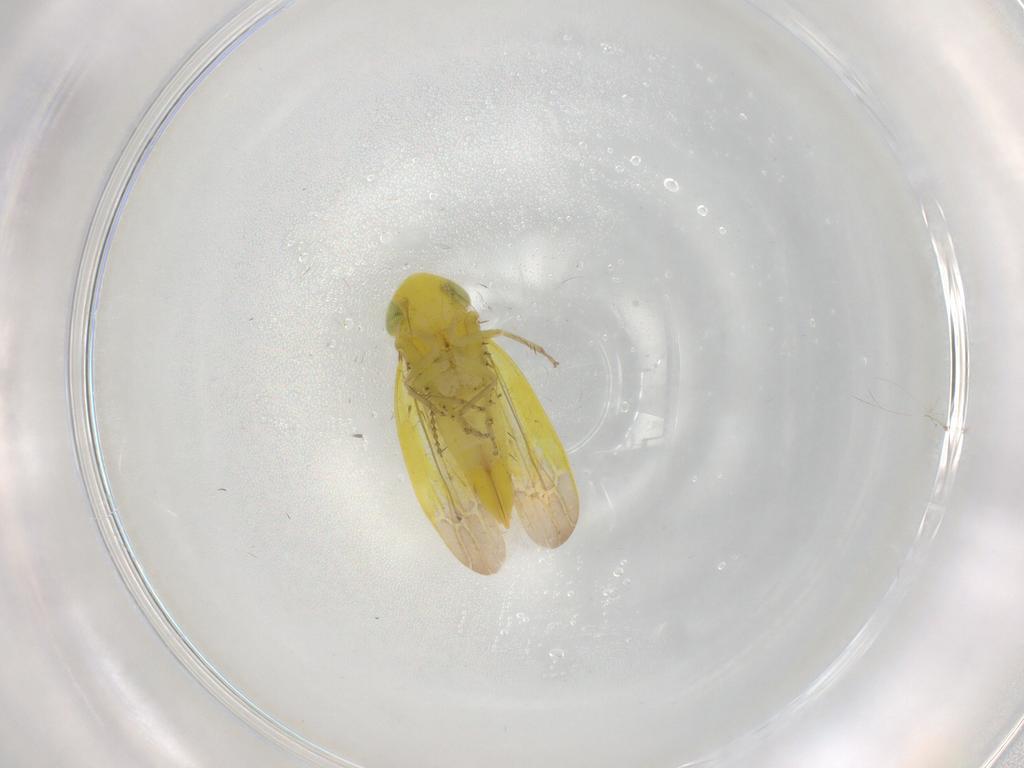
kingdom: Animalia
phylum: Arthropoda
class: Insecta
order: Hemiptera
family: Cicadellidae
